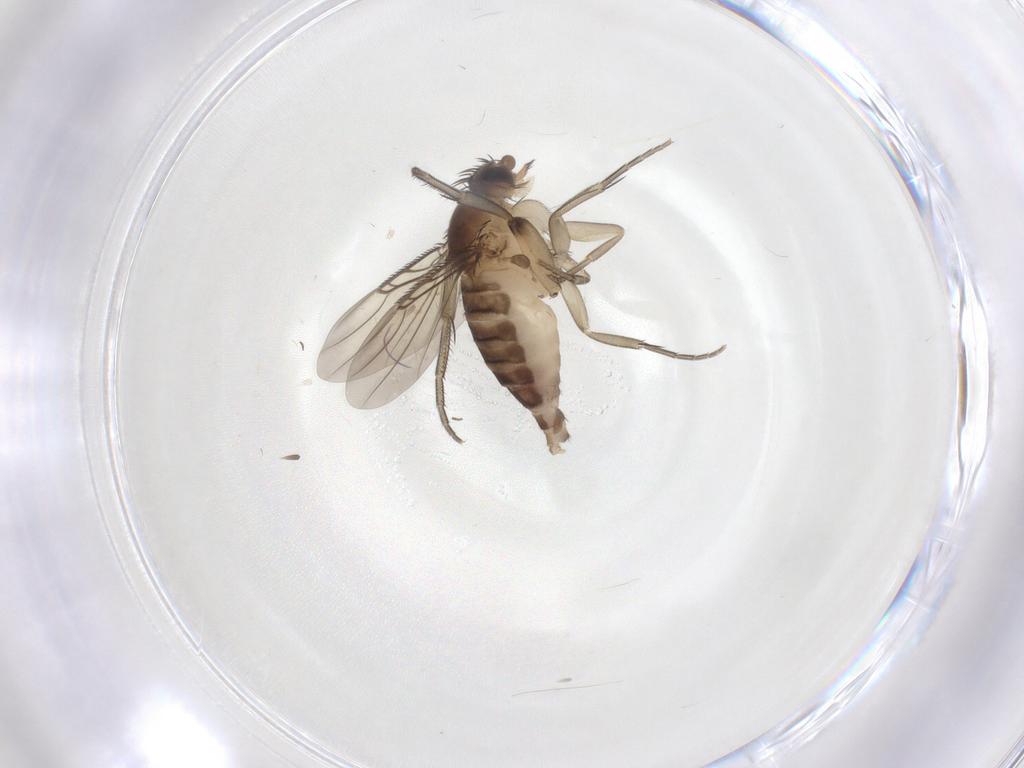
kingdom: Animalia
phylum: Arthropoda
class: Insecta
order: Diptera
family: Phoridae
